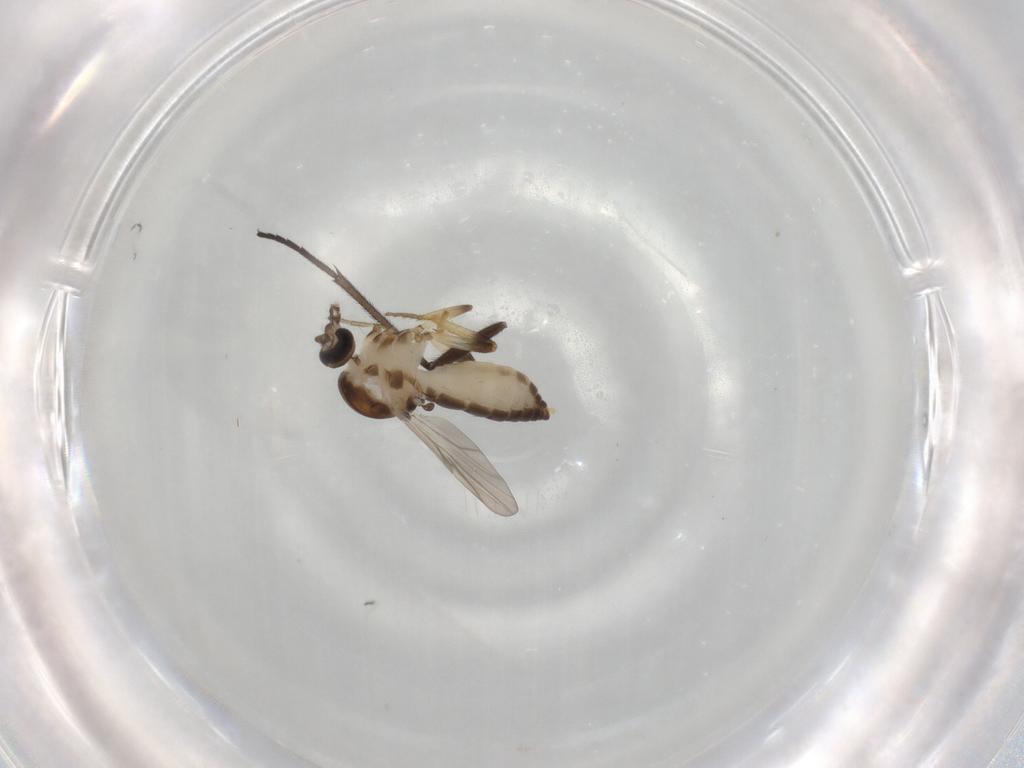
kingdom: Animalia
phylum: Arthropoda
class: Insecta
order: Diptera
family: Ceratopogonidae
